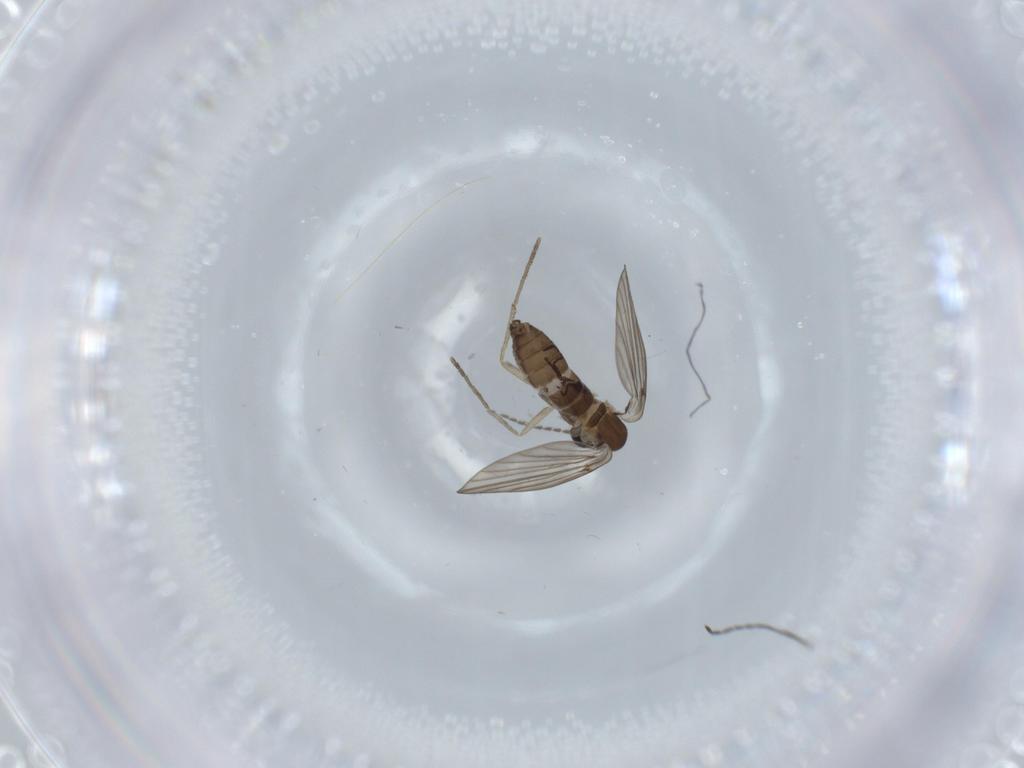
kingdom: Animalia
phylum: Arthropoda
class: Insecta
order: Diptera
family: Psychodidae
